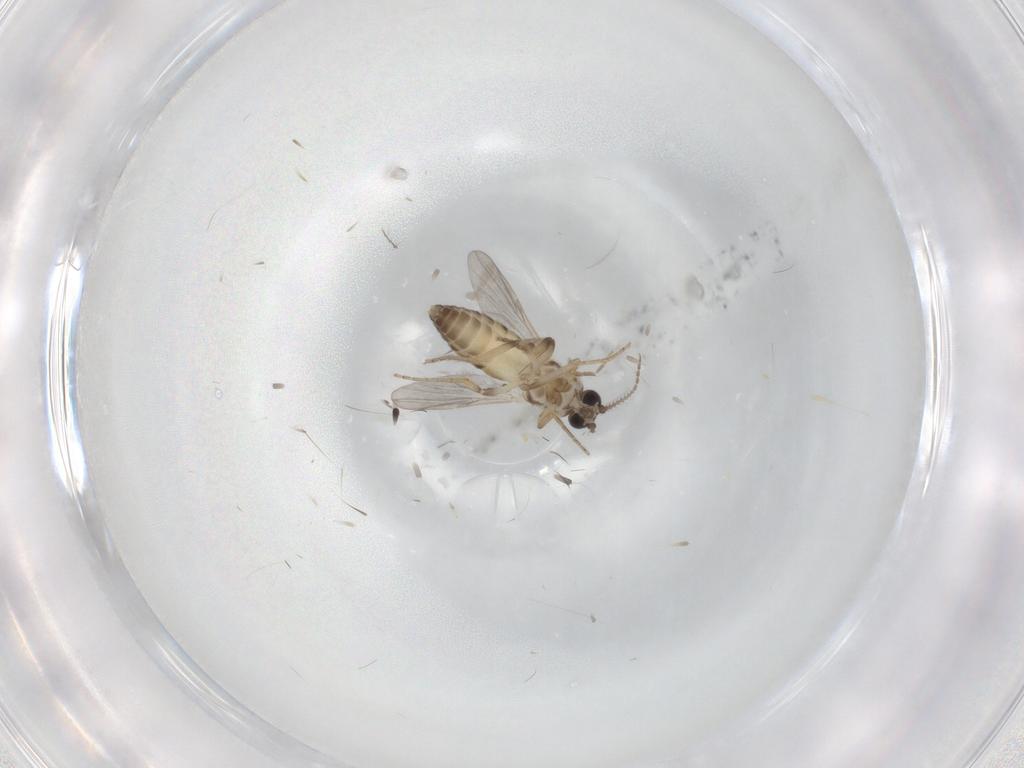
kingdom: Animalia
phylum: Arthropoda
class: Insecta
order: Diptera
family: Ceratopogonidae
